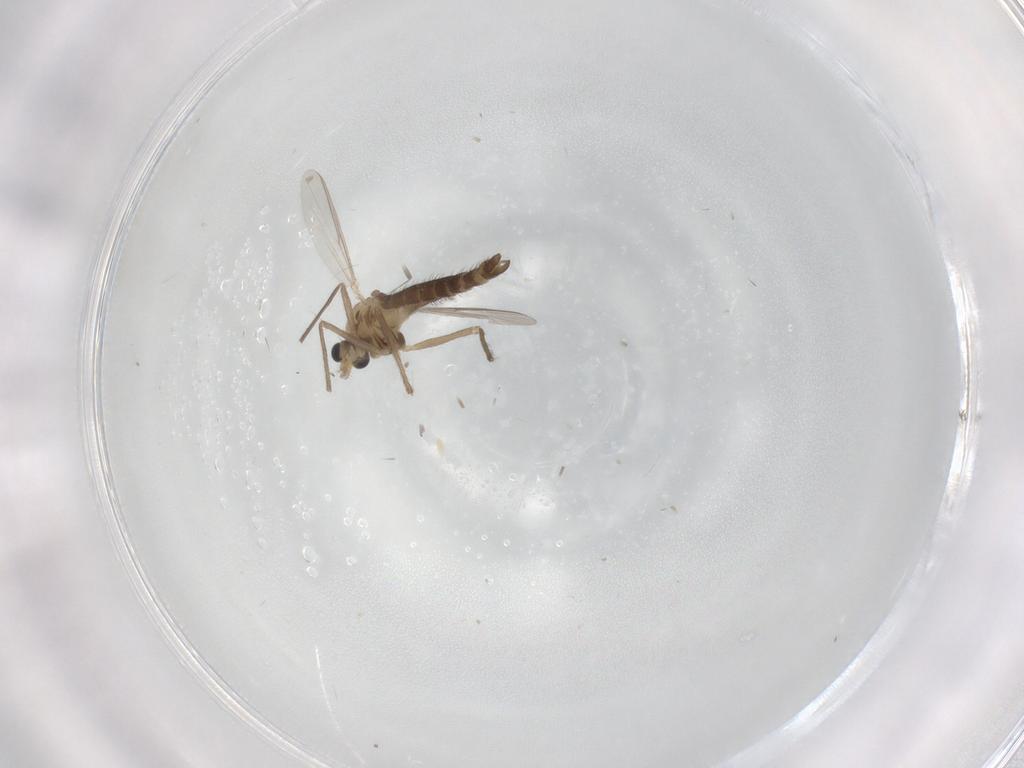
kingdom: Animalia
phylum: Arthropoda
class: Insecta
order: Diptera
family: Chironomidae
